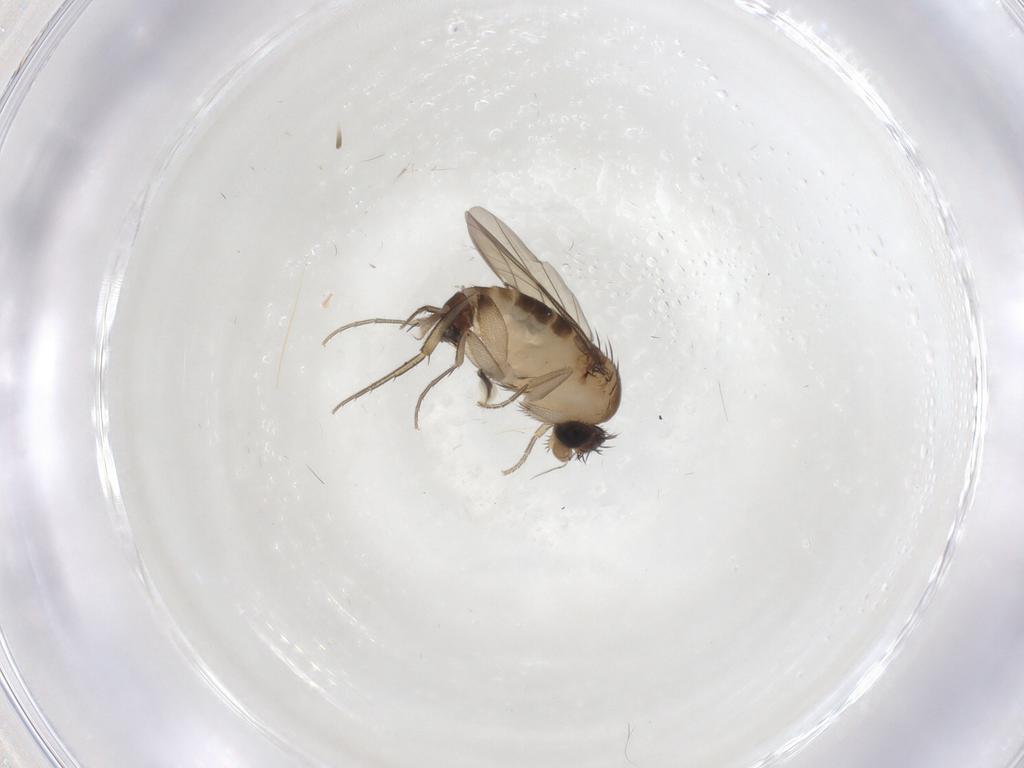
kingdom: Animalia
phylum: Arthropoda
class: Insecta
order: Diptera
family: Phoridae
